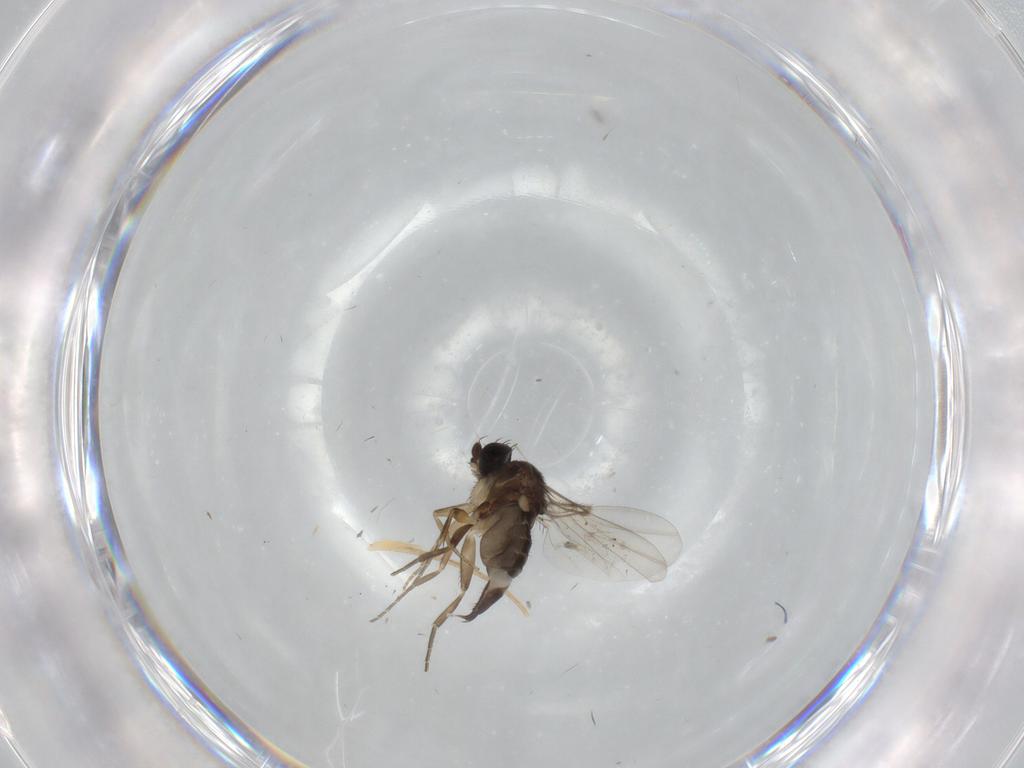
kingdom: Animalia
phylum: Arthropoda
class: Insecta
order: Diptera
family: Phoridae
